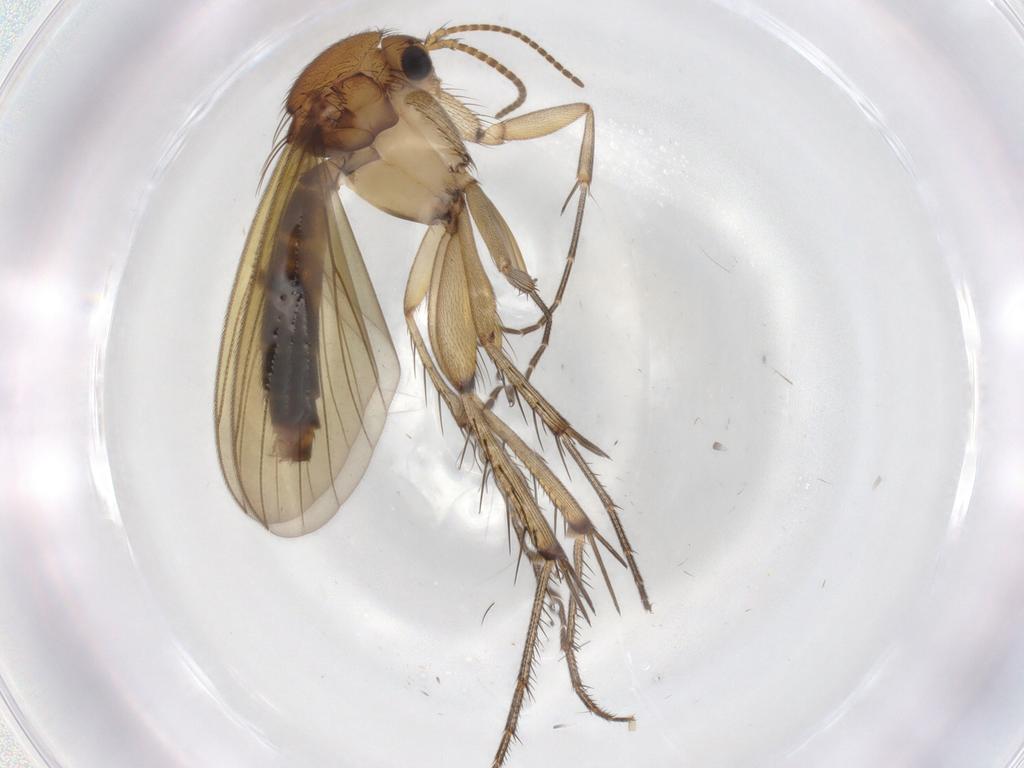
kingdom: Animalia
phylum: Arthropoda
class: Insecta
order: Diptera
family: Mycetophilidae
